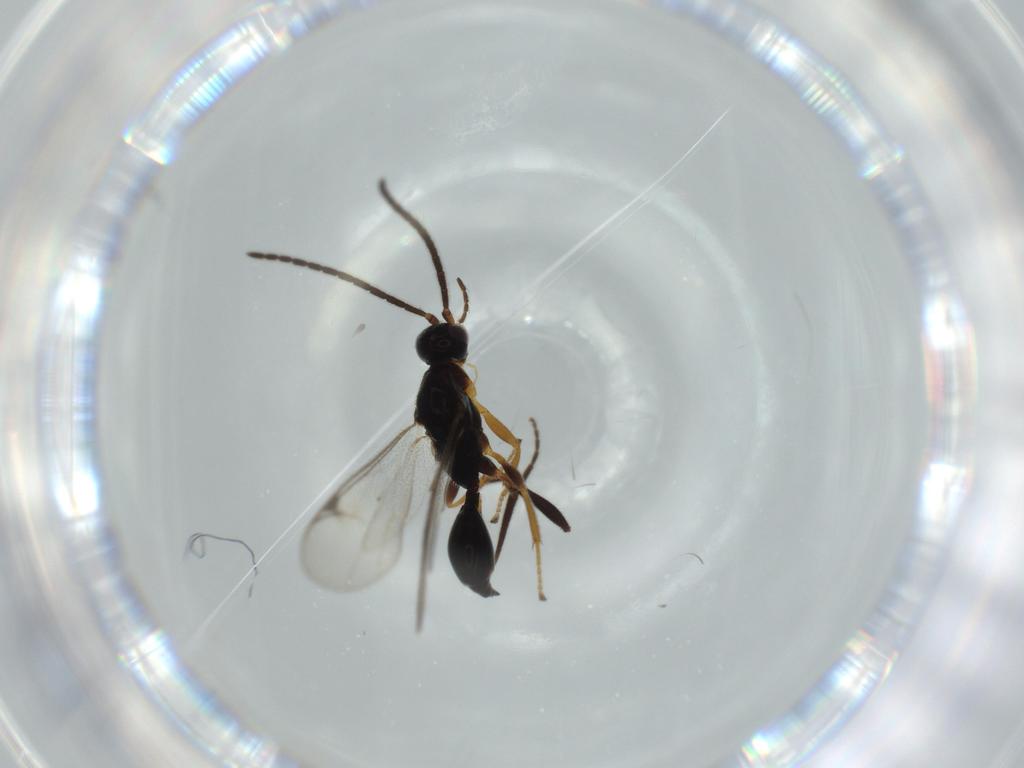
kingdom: Animalia
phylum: Arthropoda
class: Insecta
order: Hymenoptera
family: Proctotrupidae
